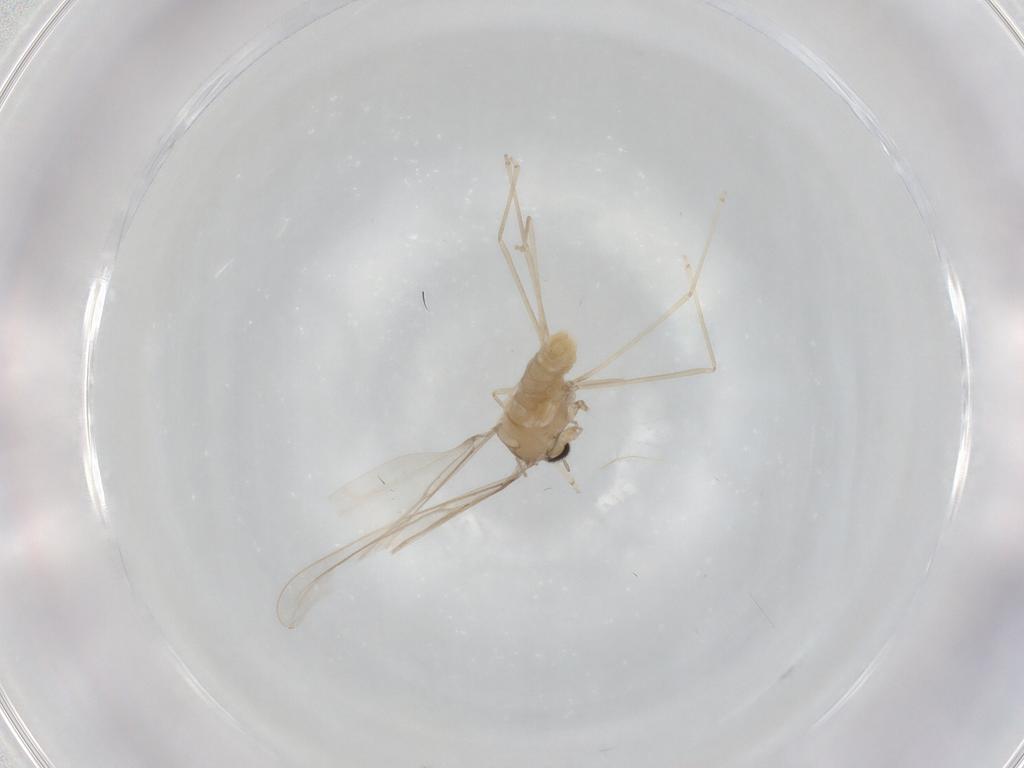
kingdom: Animalia
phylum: Arthropoda
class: Insecta
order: Diptera
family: Cecidomyiidae
